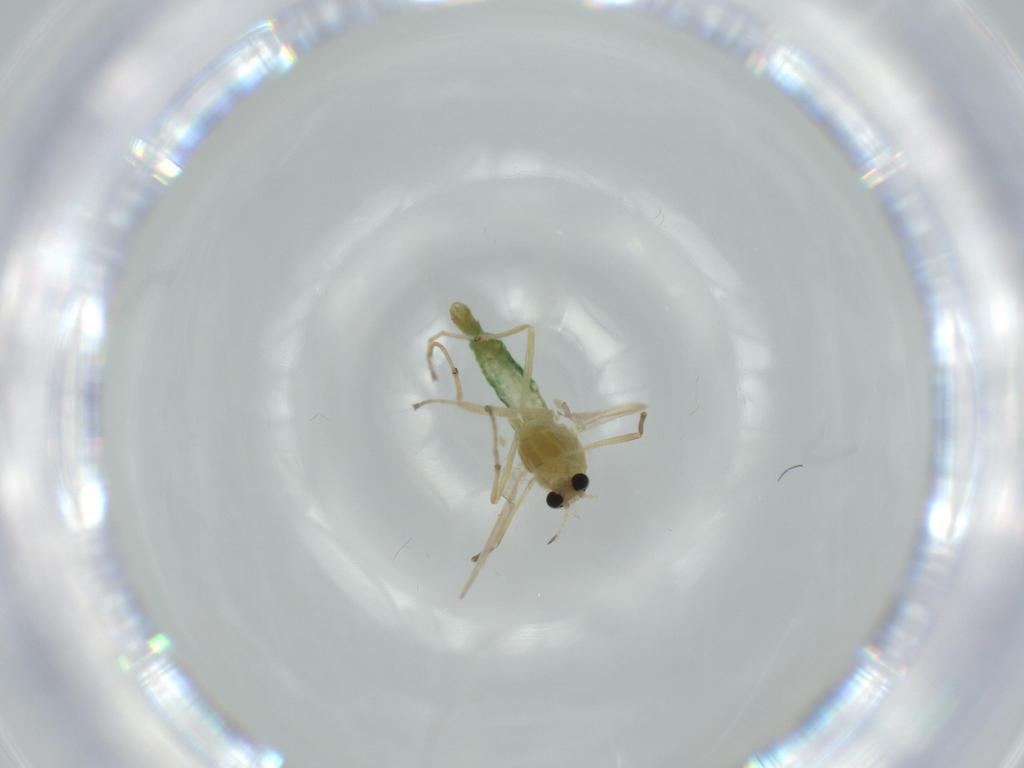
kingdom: Animalia
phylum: Arthropoda
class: Insecta
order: Diptera
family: Chironomidae
